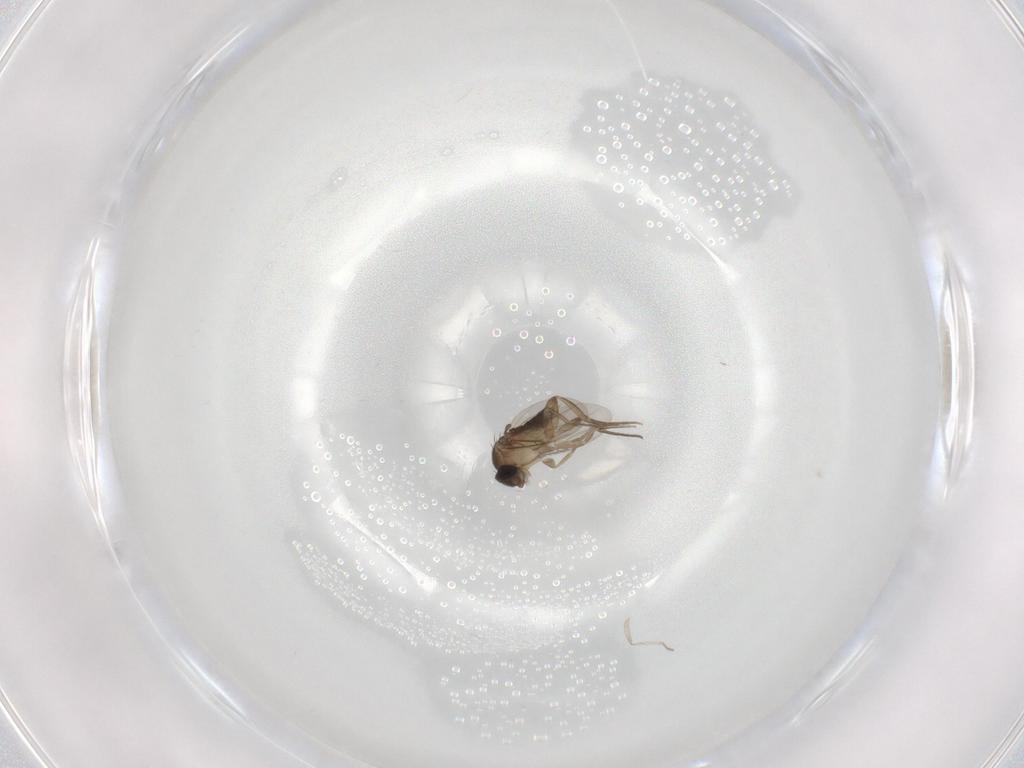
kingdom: Animalia
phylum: Arthropoda
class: Insecta
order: Diptera
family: Phoridae
